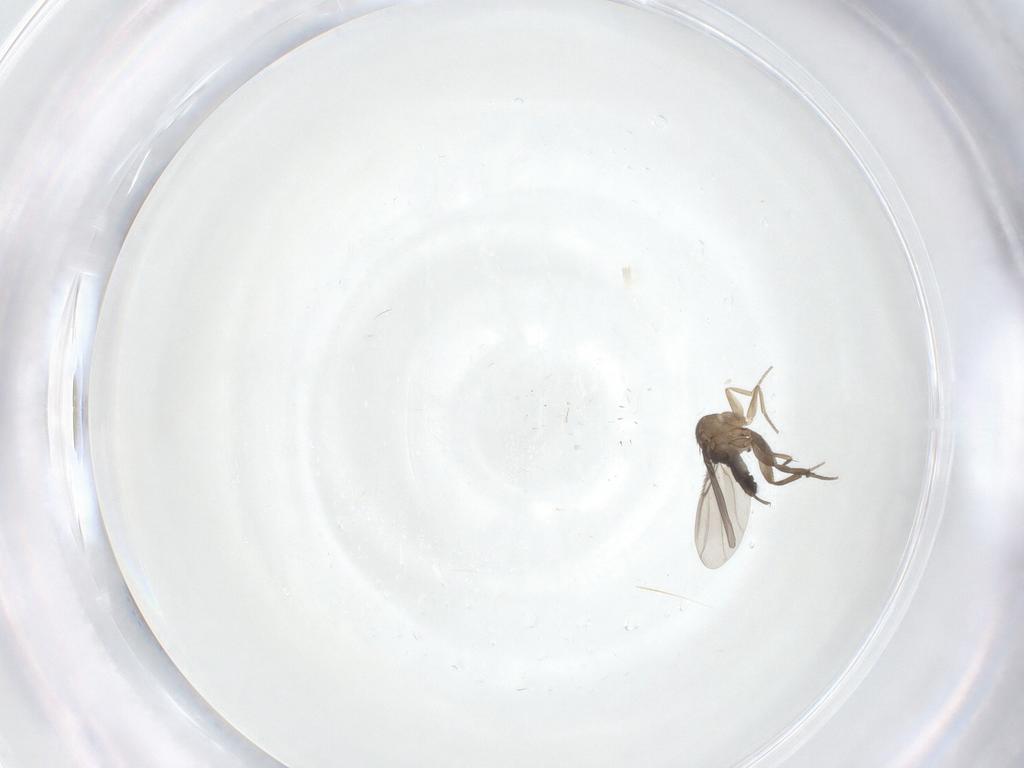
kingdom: Animalia
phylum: Arthropoda
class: Insecta
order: Diptera
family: Phoridae
